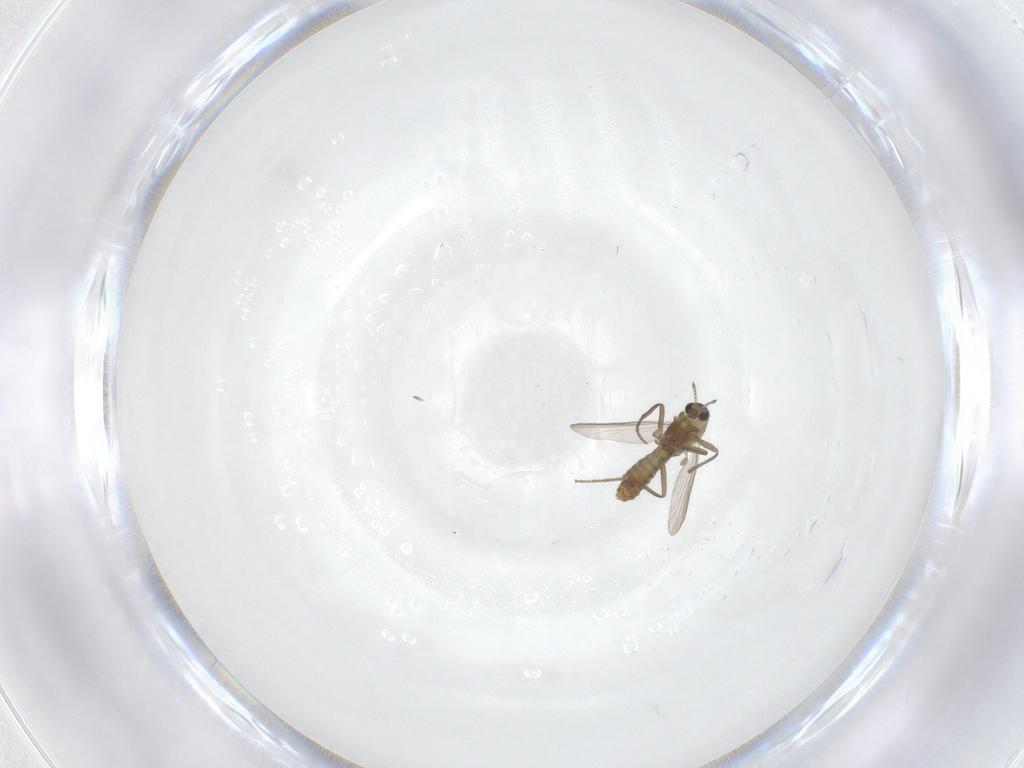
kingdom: Animalia
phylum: Arthropoda
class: Insecta
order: Diptera
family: Chironomidae
